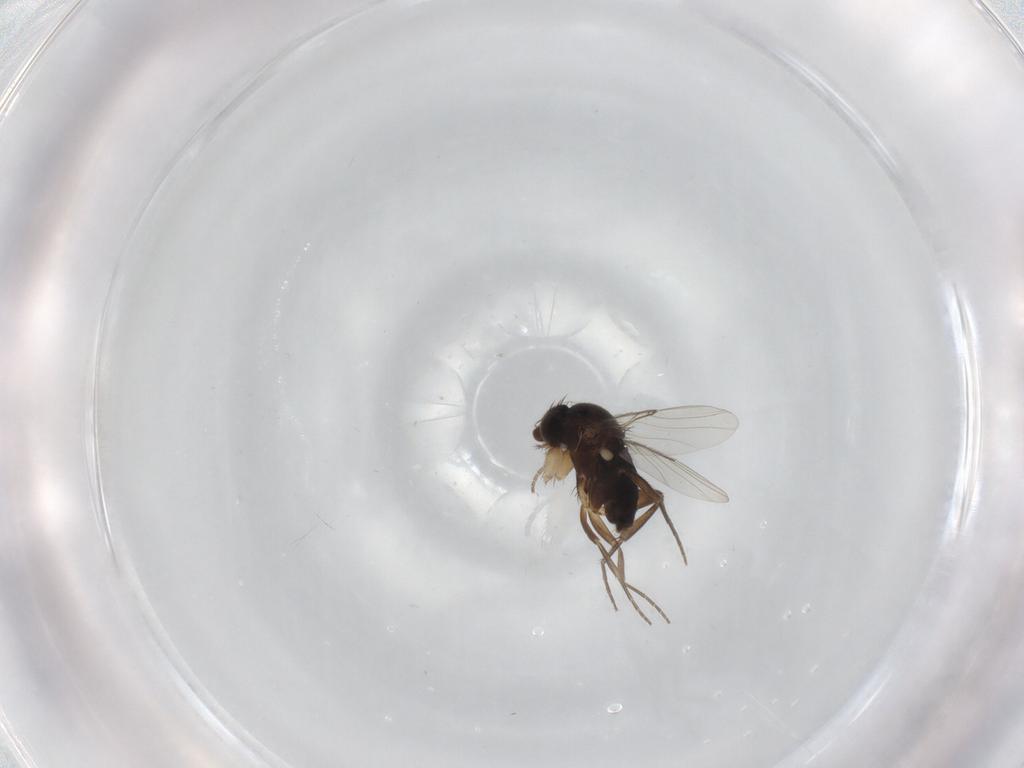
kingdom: Animalia
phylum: Arthropoda
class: Insecta
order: Diptera
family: Phoridae
